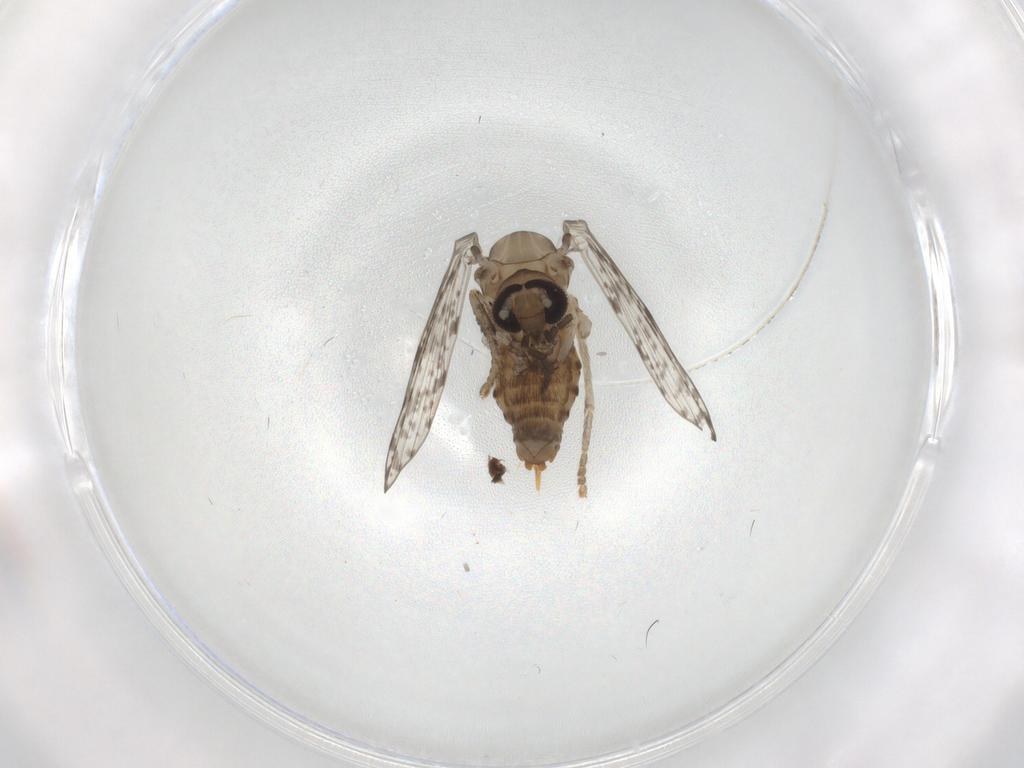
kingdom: Animalia
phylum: Arthropoda
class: Insecta
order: Diptera
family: Psychodidae
